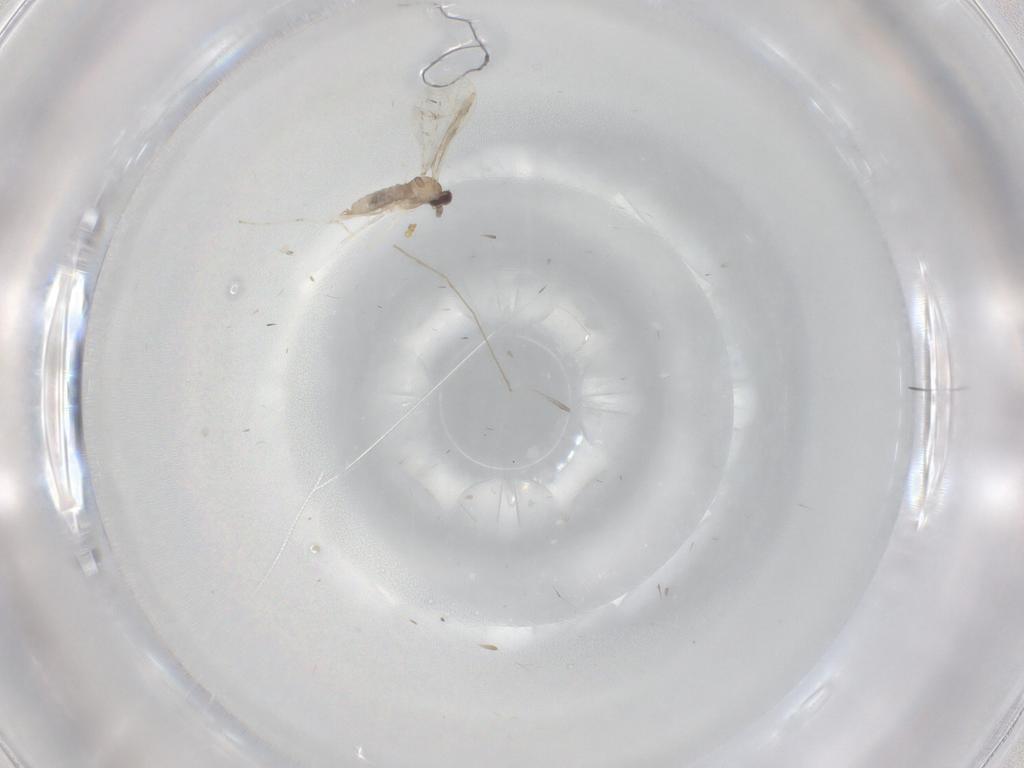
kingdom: Animalia
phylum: Arthropoda
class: Insecta
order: Diptera
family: Cecidomyiidae
